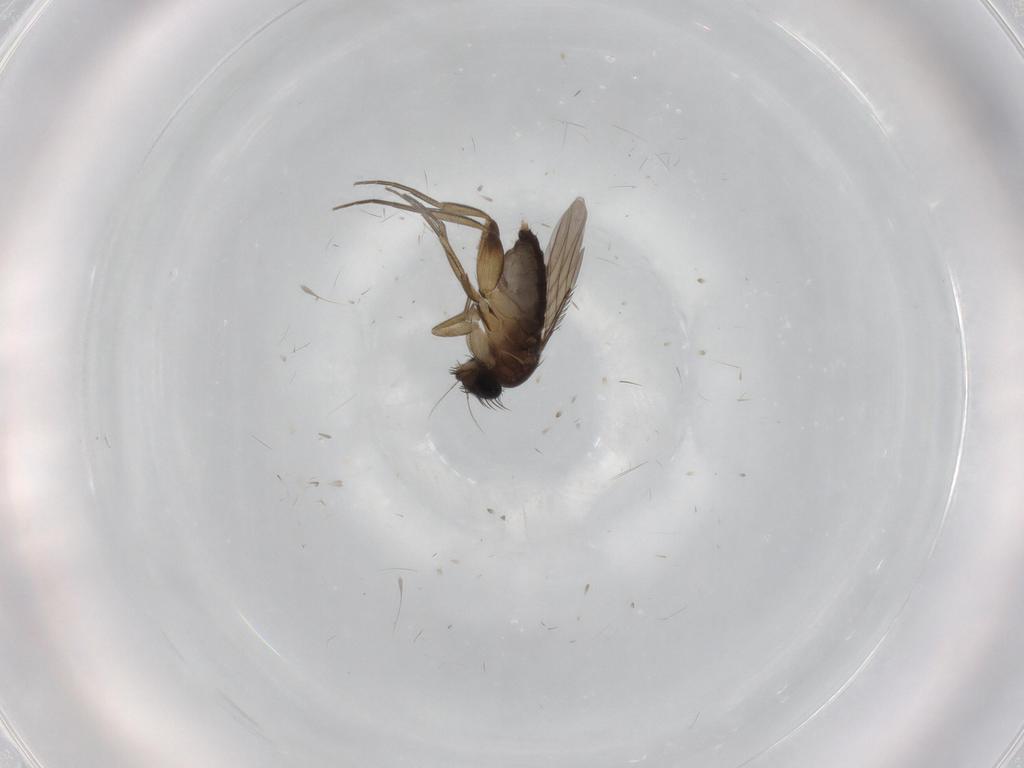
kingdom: Animalia
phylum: Arthropoda
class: Insecta
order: Diptera
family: Phoridae
